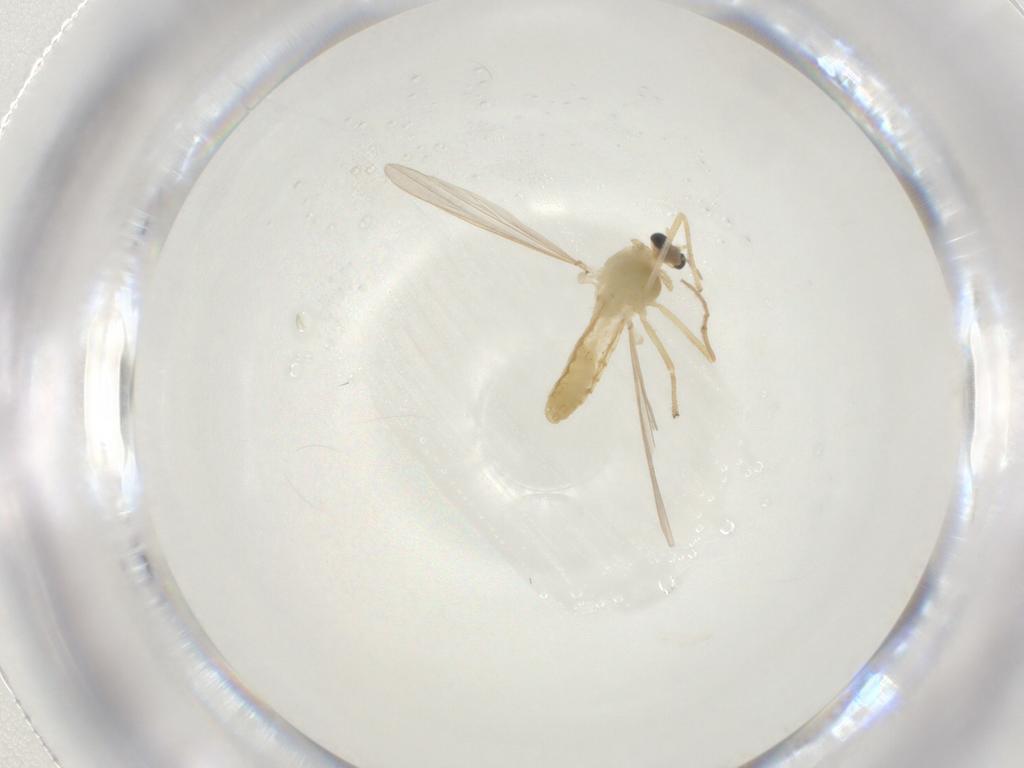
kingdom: Animalia
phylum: Arthropoda
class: Insecta
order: Diptera
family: Chironomidae
